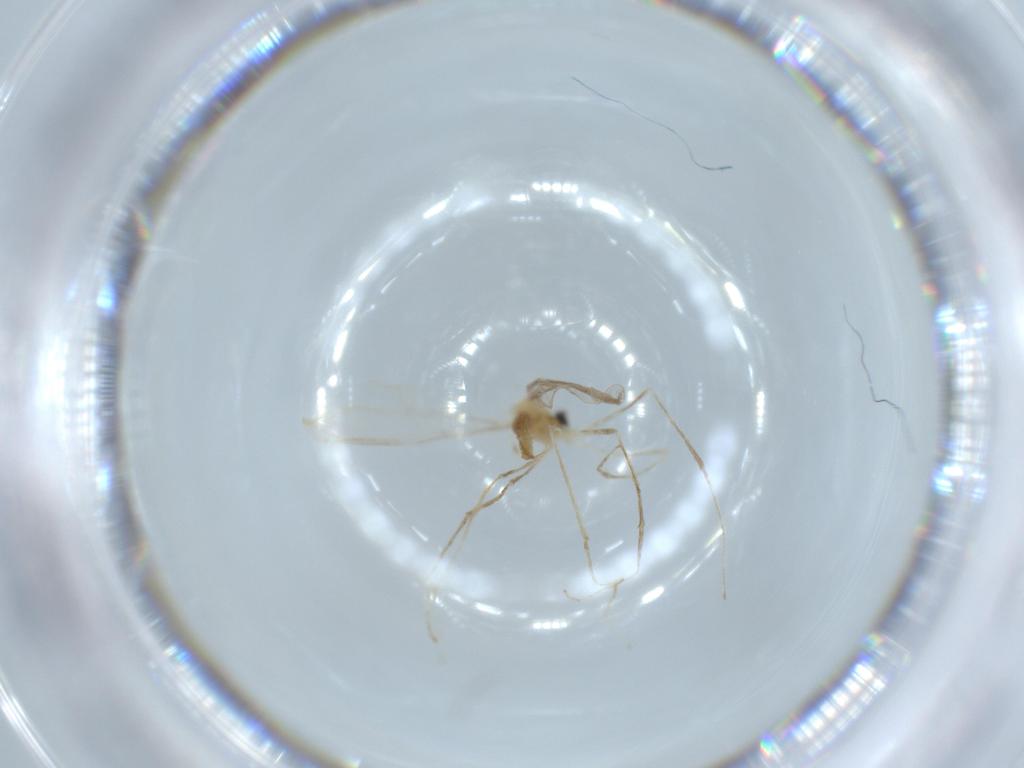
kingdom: Animalia
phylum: Arthropoda
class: Insecta
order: Diptera
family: Cecidomyiidae
